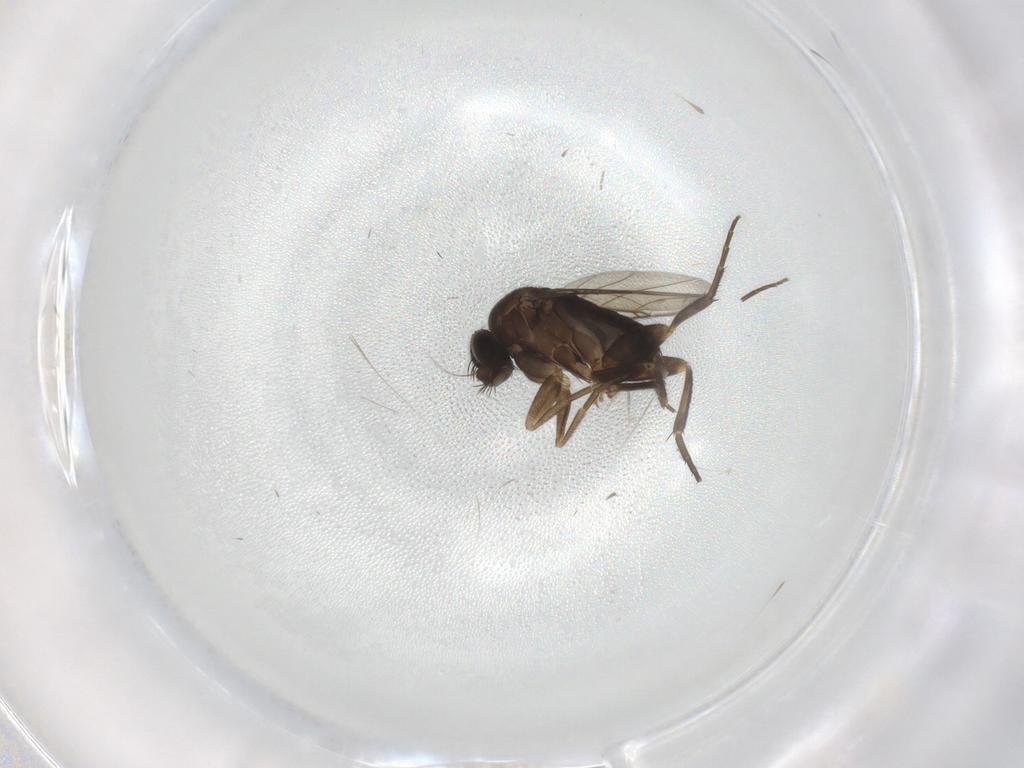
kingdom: Animalia
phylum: Arthropoda
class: Insecta
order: Diptera
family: Phoridae
